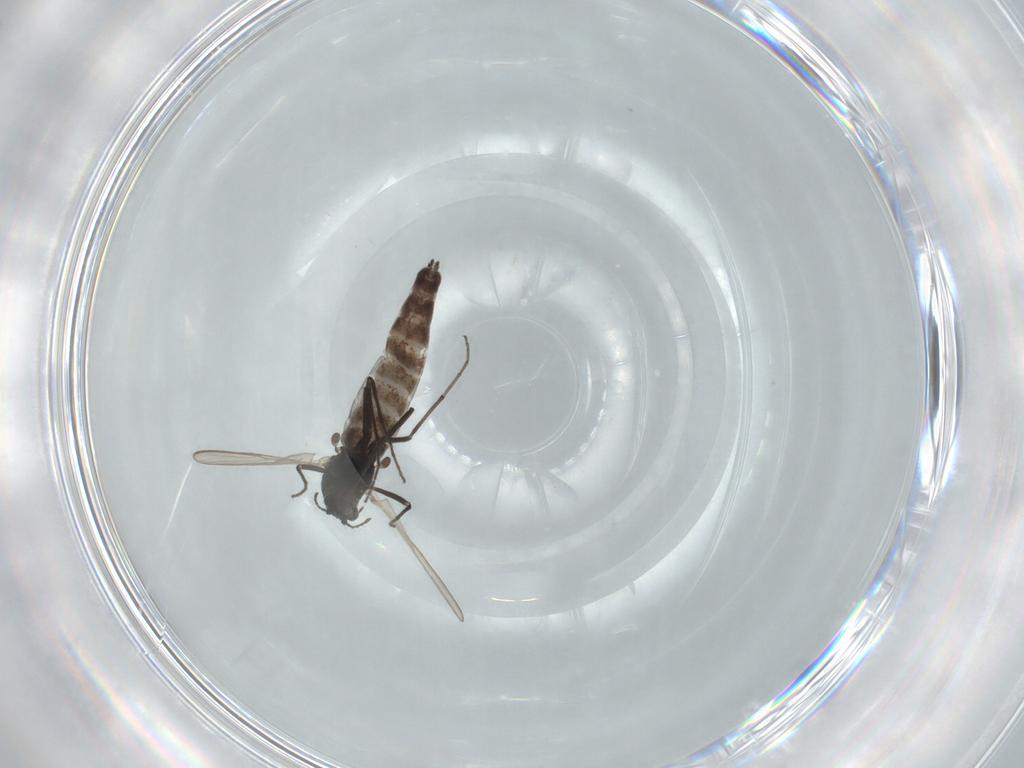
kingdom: Animalia
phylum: Arthropoda
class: Insecta
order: Diptera
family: Chironomidae
